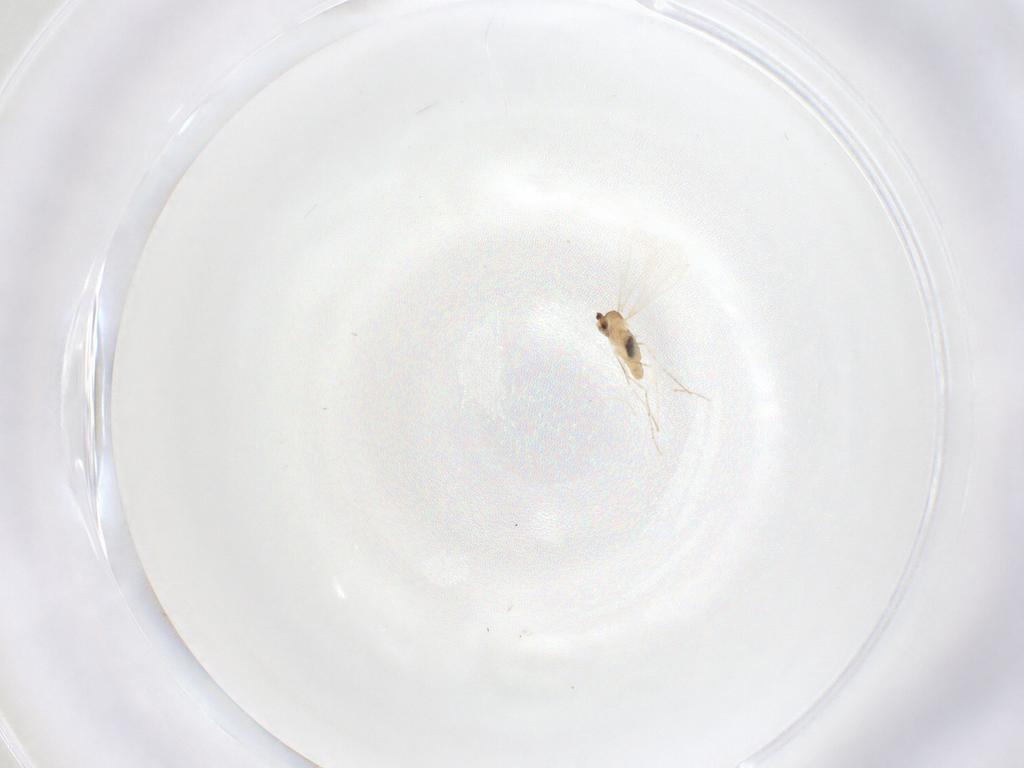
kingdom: Animalia
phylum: Arthropoda
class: Insecta
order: Diptera
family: Cecidomyiidae
